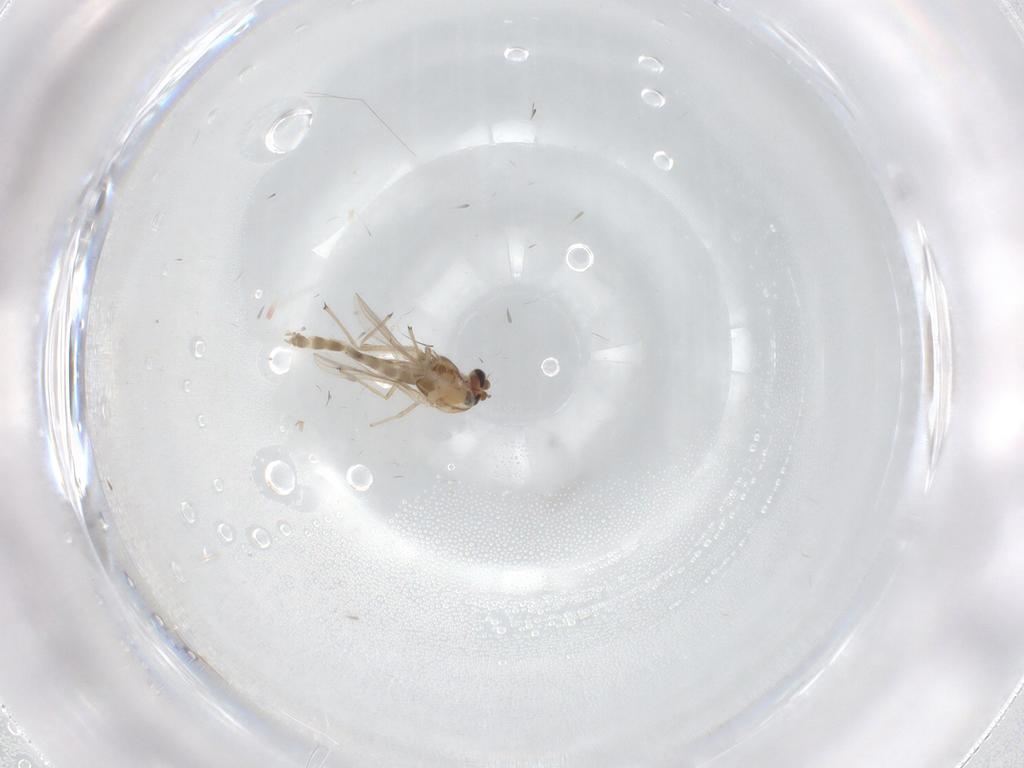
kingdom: Animalia
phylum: Arthropoda
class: Insecta
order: Diptera
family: Chironomidae
